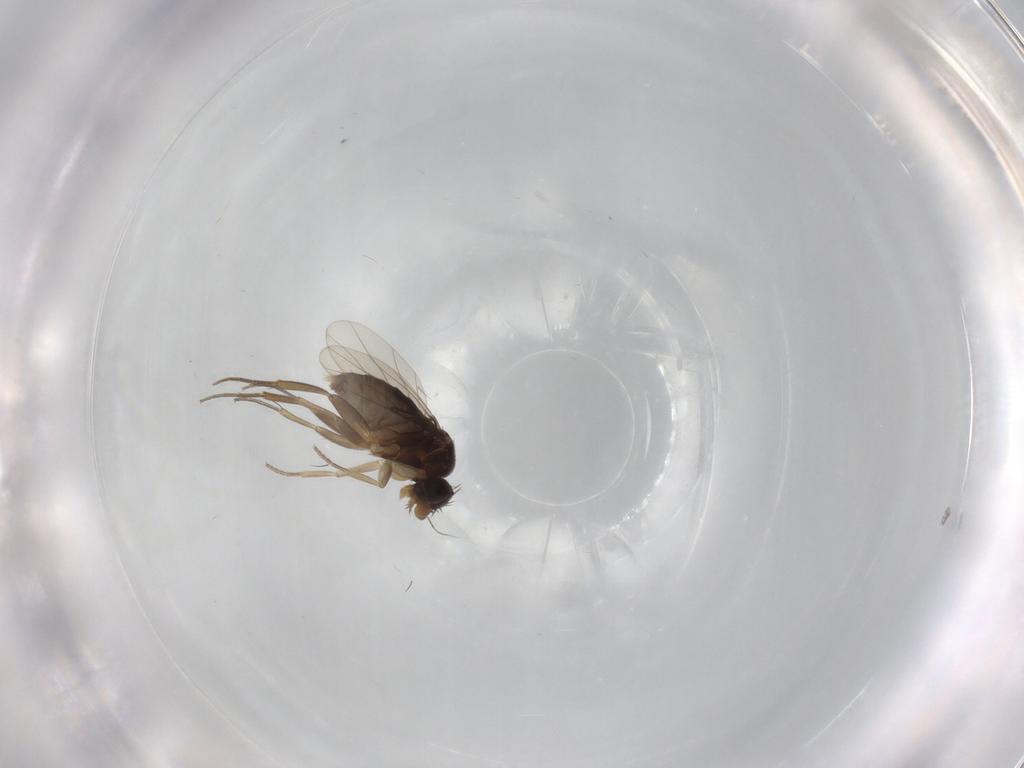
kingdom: Animalia
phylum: Arthropoda
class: Insecta
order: Diptera
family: Phoridae
